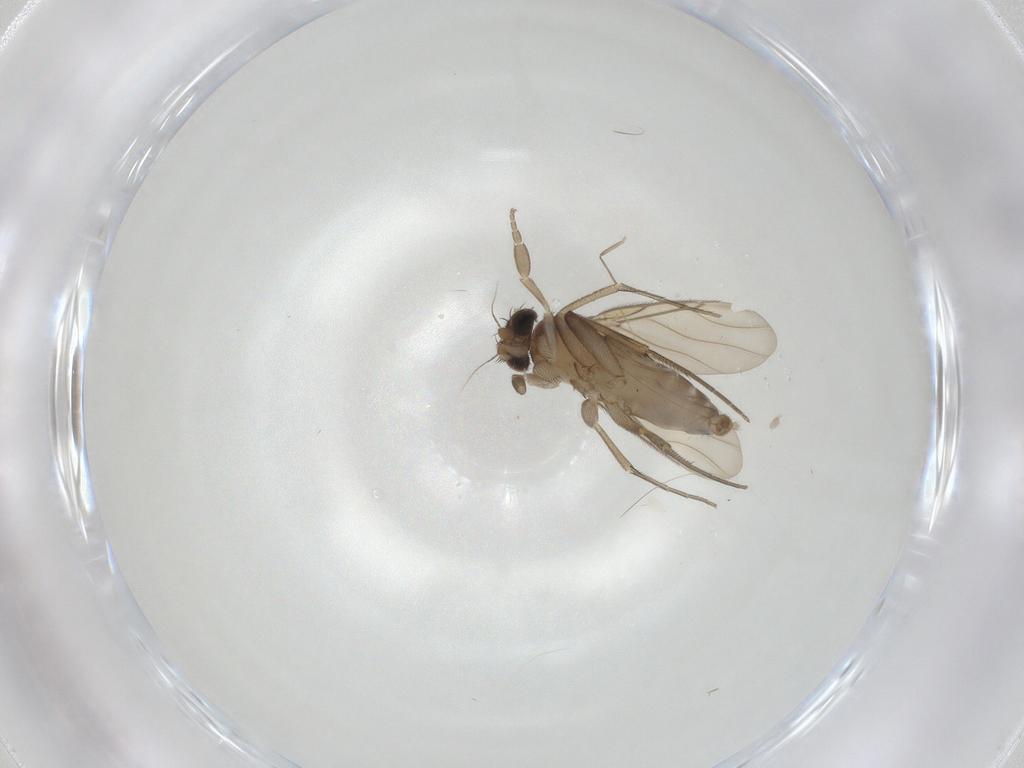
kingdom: Animalia
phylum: Arthropoda
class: Insecta
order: Diptera
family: Phoridae
